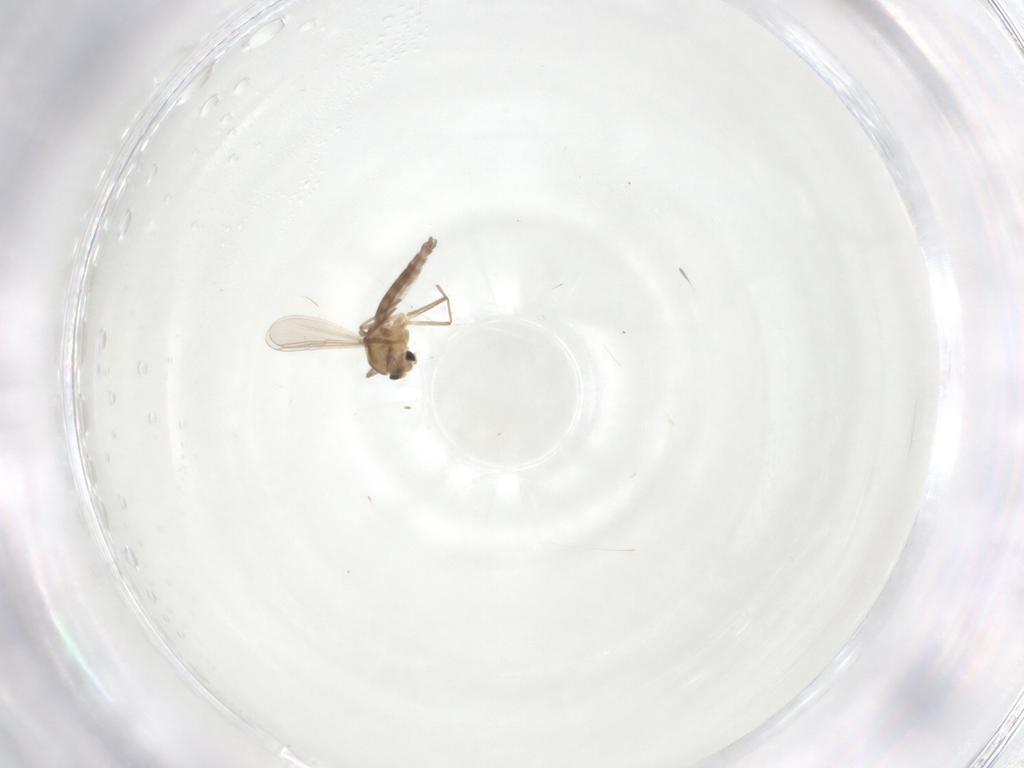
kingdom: Animalia
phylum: Arthropoda
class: Insecta
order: Diptera
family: Chironomidae
